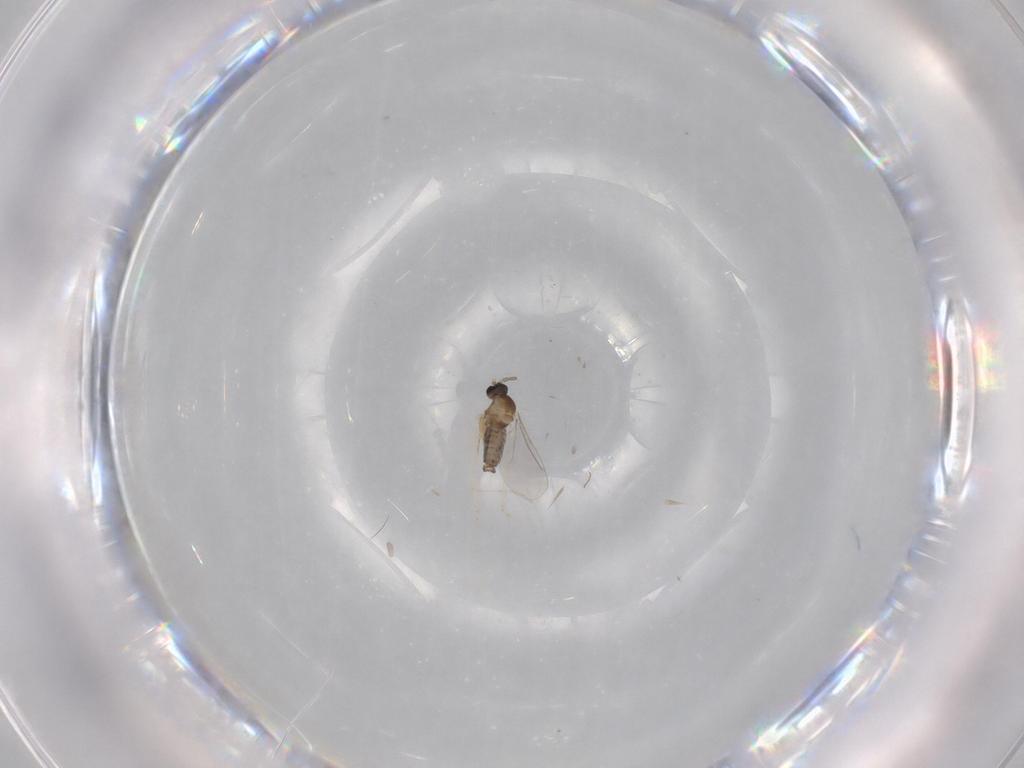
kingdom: Animalia
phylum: Arthropoda
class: Insecta
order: Diptera
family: Cecidomyiidae
